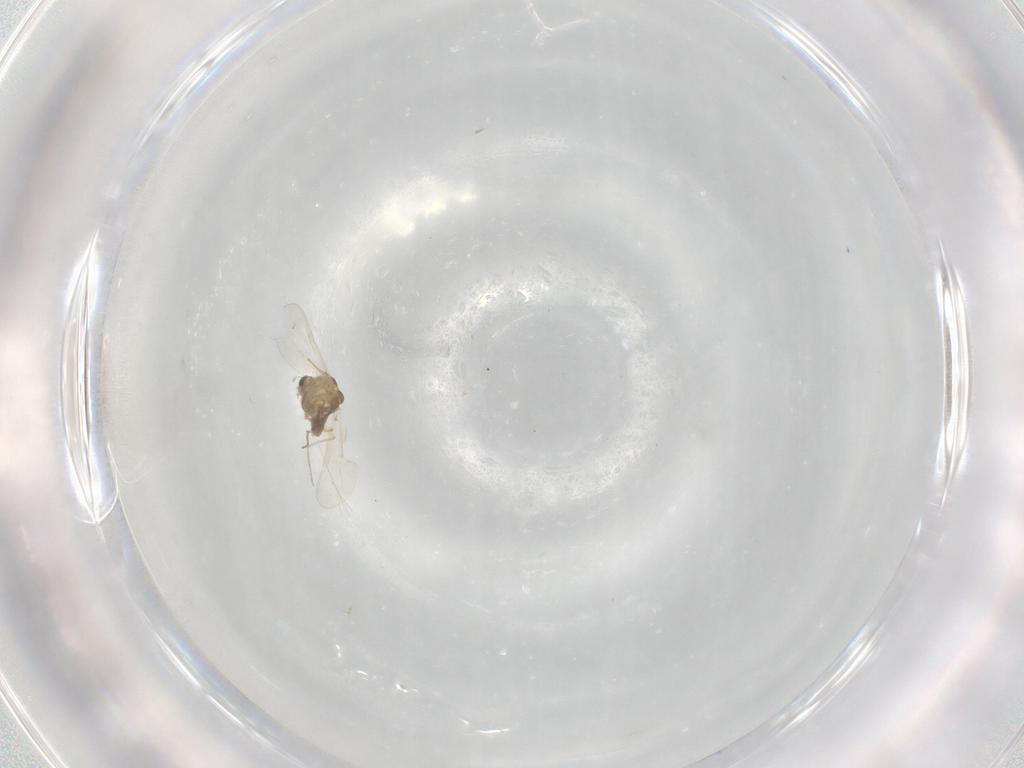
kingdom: Animalia
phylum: Arthropoda
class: Insecta
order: Diptera
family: Chironomidae
